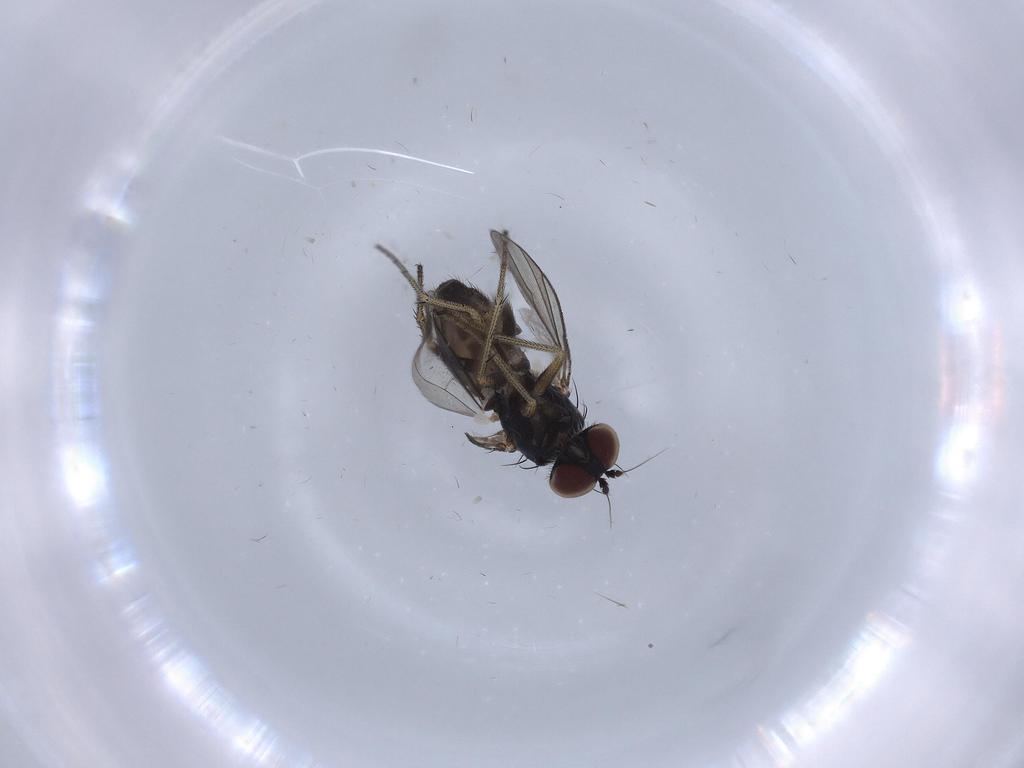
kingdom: Animalia
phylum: Arthropoda
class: Insecta
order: Diptera
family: Dolichopodidae
